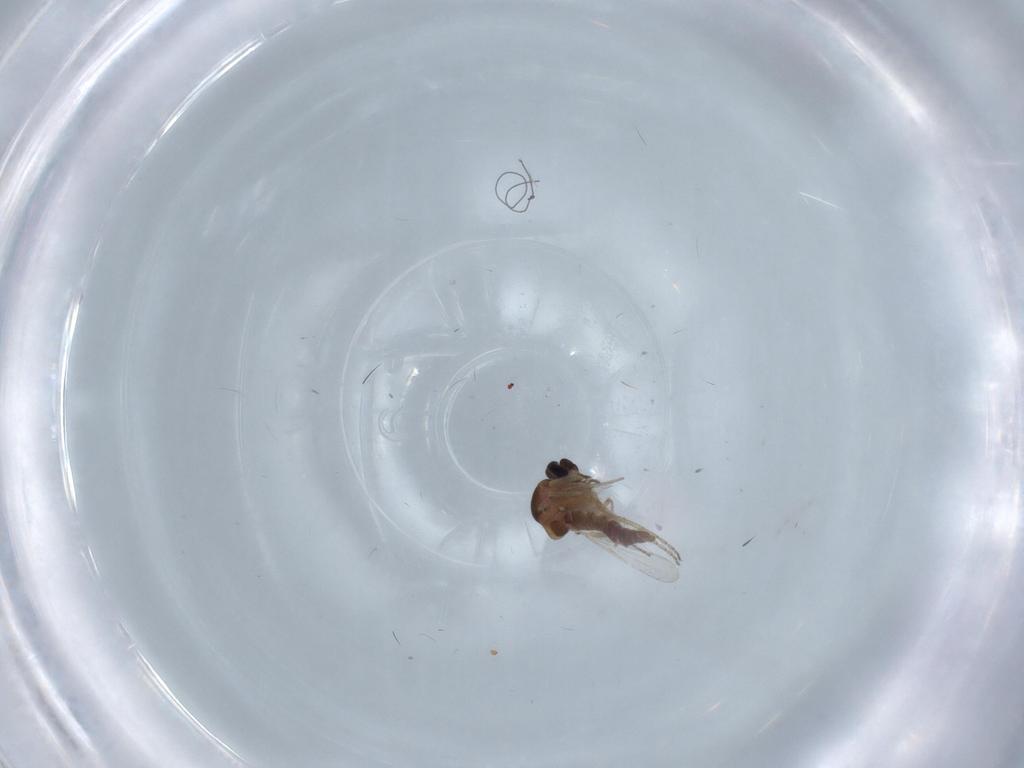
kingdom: Animalia
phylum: Arthropoda
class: Insecta
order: Diptera
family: Ceratopogonidae
